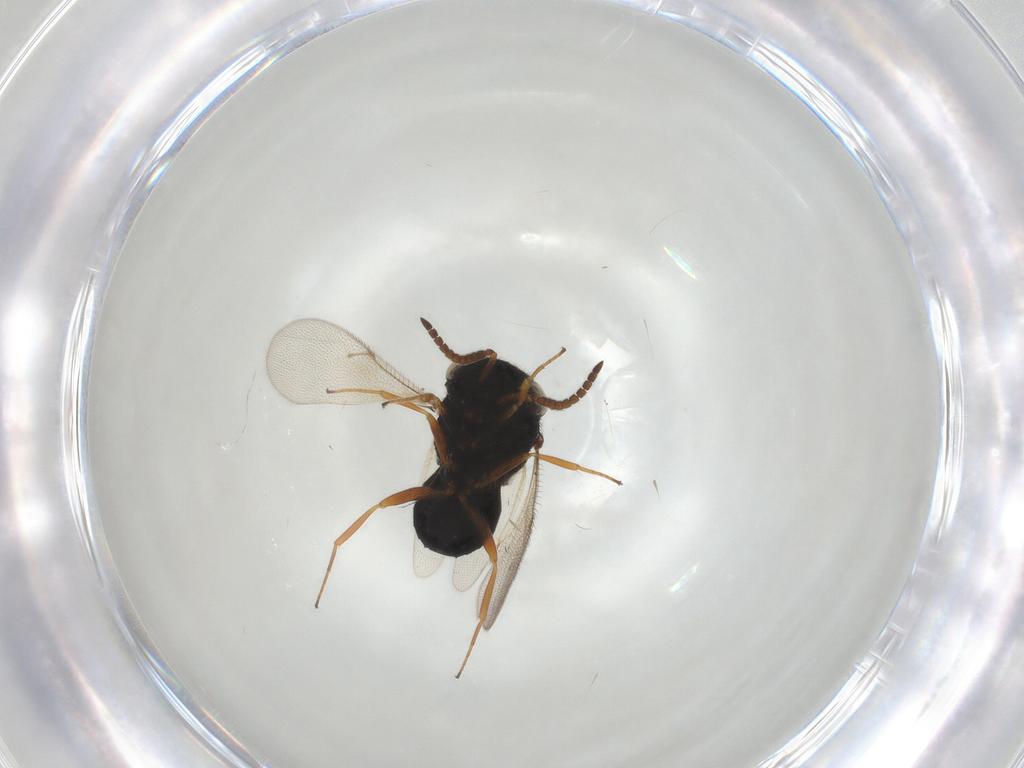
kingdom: Animalia
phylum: Arthropoda
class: Insecta
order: Hymenoptera
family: Scelionidae
